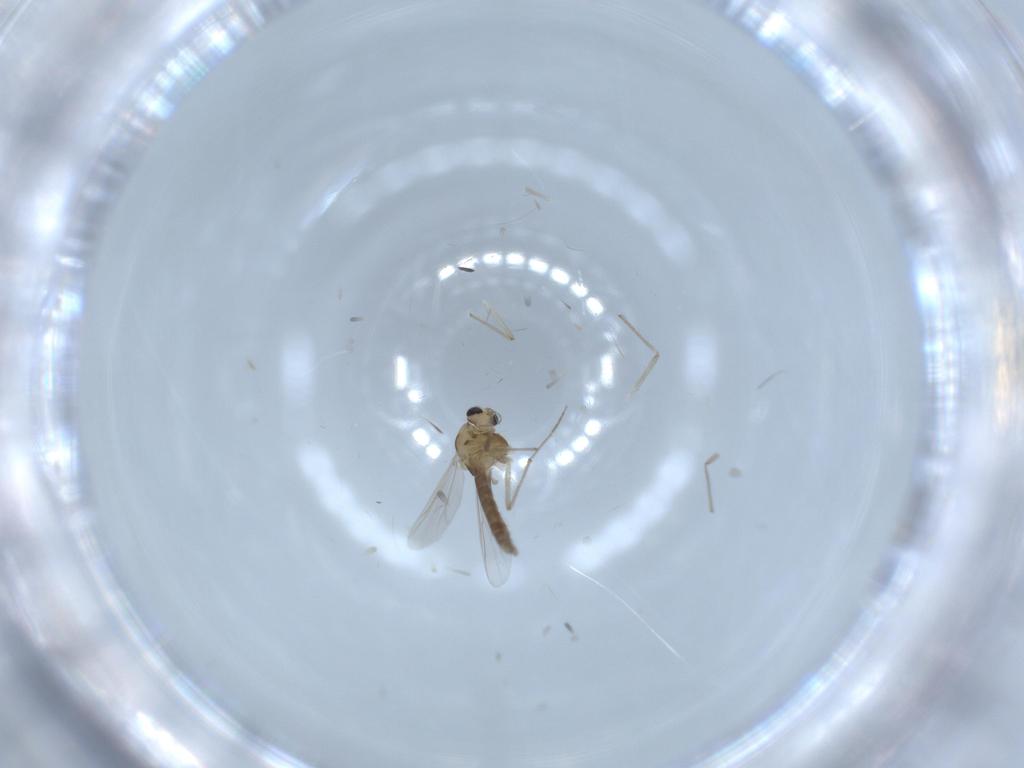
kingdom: Animalia
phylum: Arthropoda
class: Insecta
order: Diptera
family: Chironomidae
